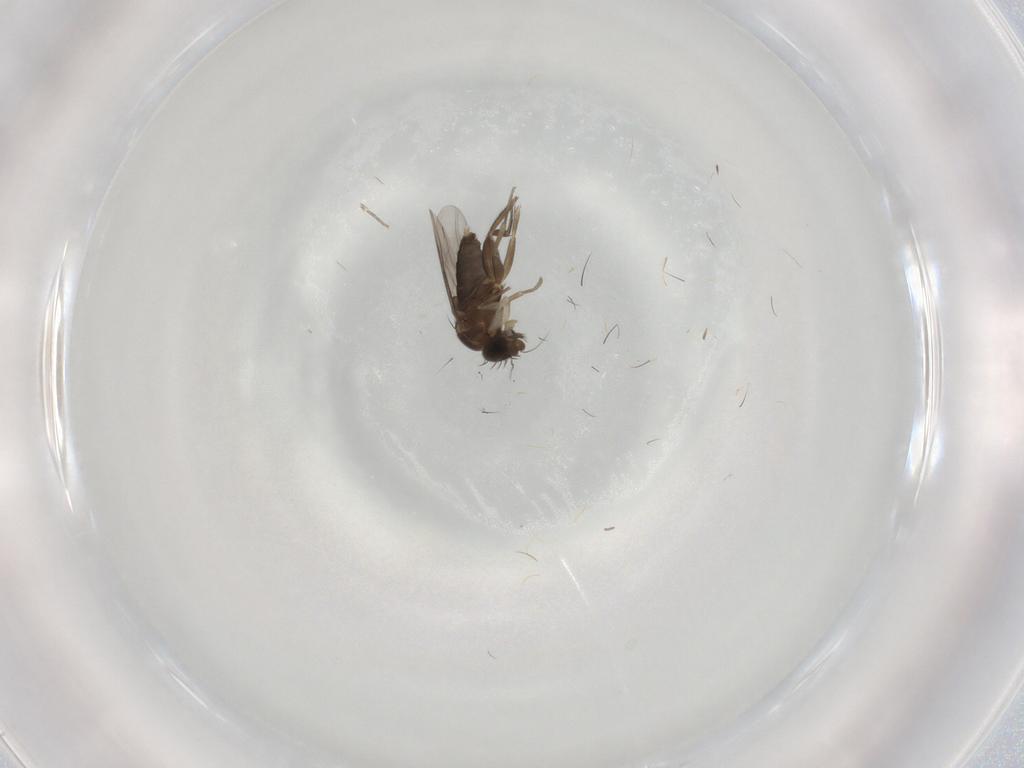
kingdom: Animalia
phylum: Arthropoda
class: Insecta
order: Diptera
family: Phoridae
